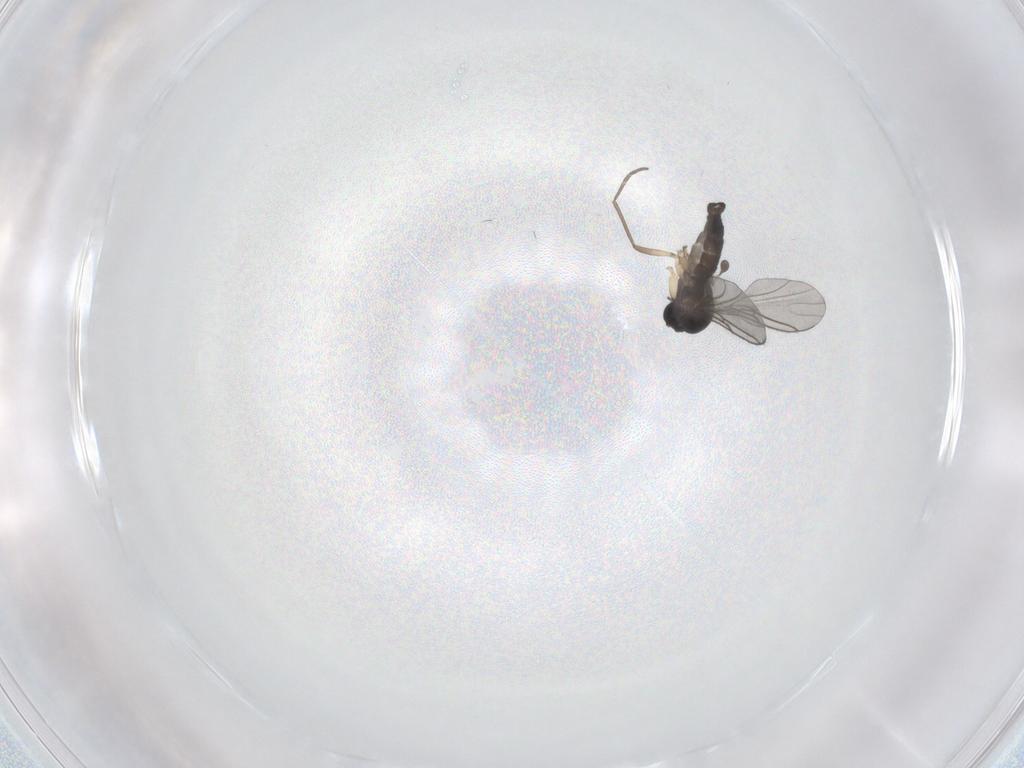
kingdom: Animalia
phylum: Arthropoda
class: Insecta
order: Diptera
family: Sciaridae
